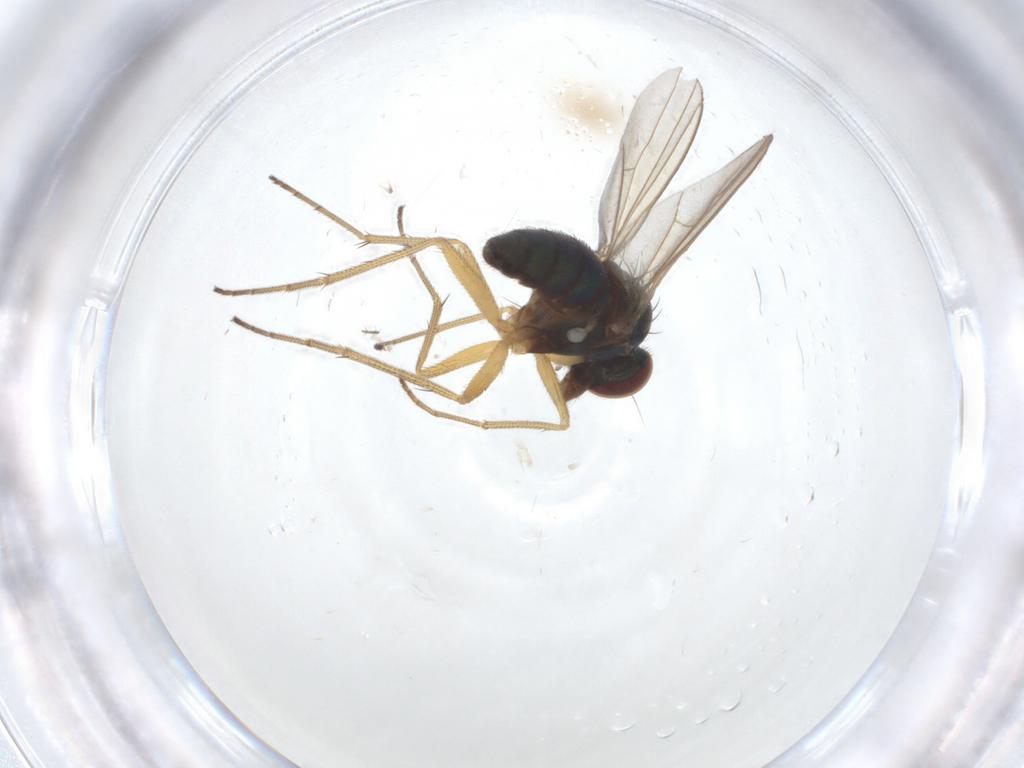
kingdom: Animalia
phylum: Arthropoda
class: Insecta
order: Diptera
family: Dolichopodidae
